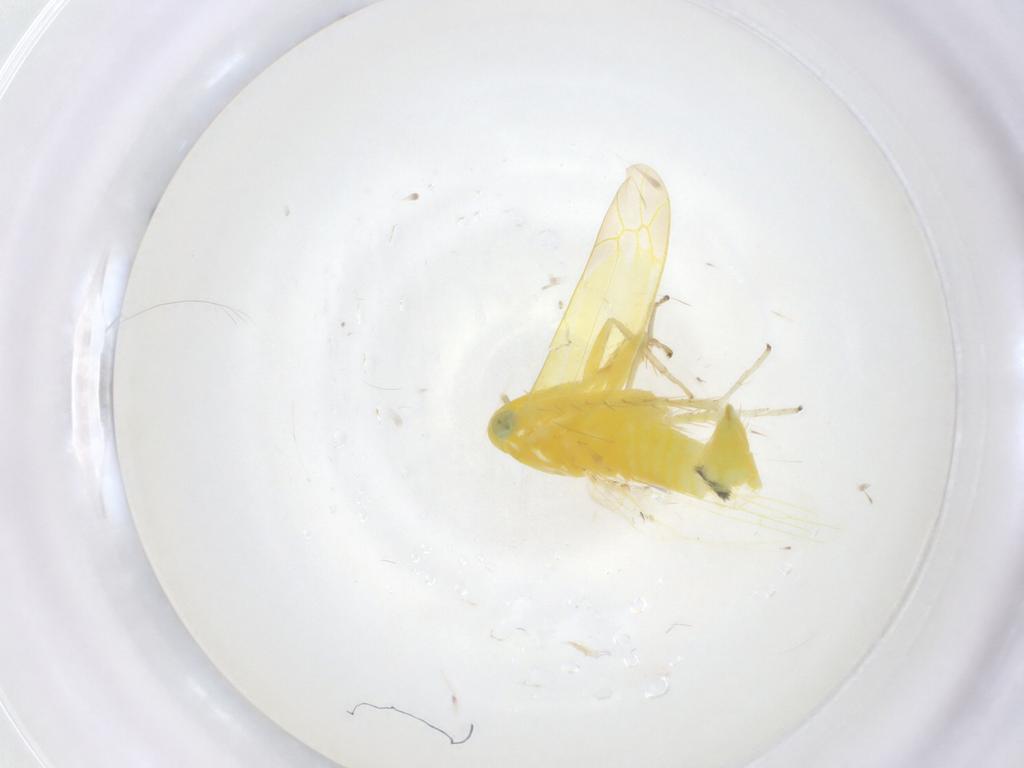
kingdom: Animalia
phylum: Arthropoda
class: Insecta
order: Hemiptera
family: Cicadellidae
